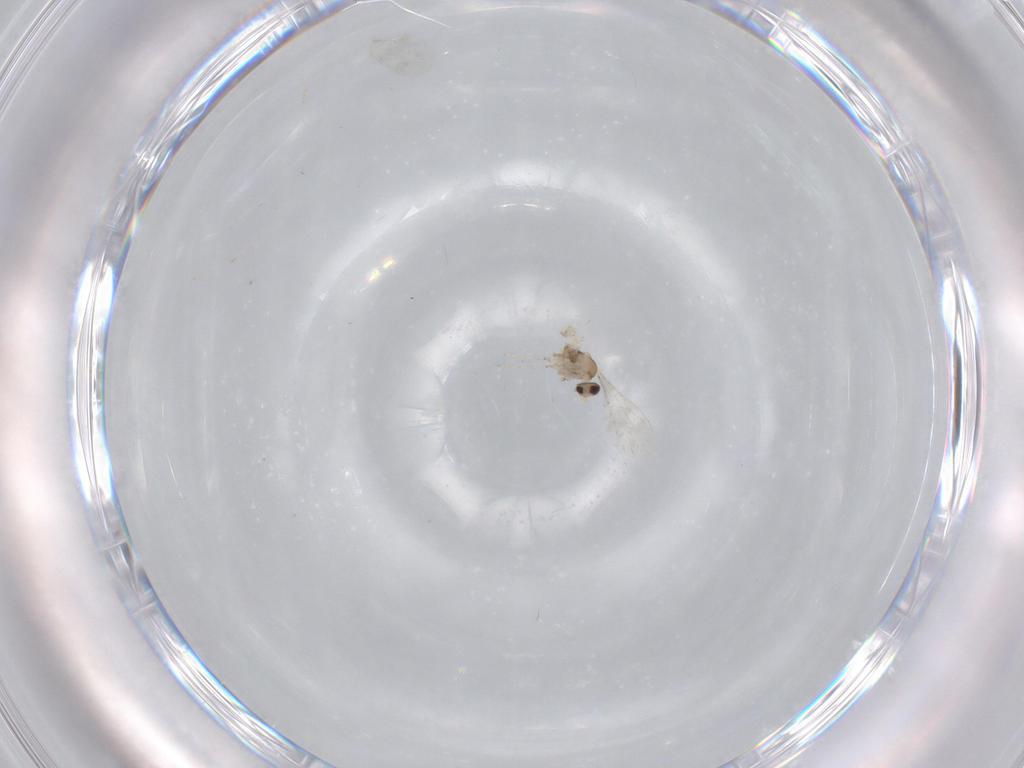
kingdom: Animalia
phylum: Arthropoda
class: Insecta
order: Diptera
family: Cecidomyiidae
